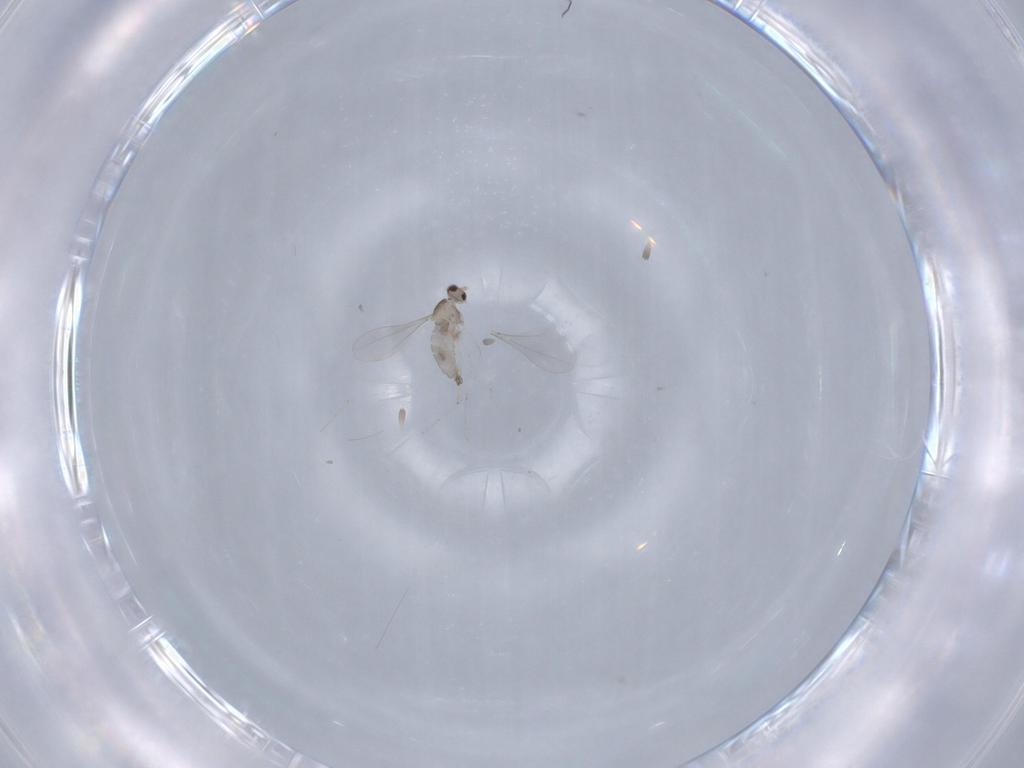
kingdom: Animalia
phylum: Arthropoda
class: Insecta
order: Diptera
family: Cecidomyiidae
